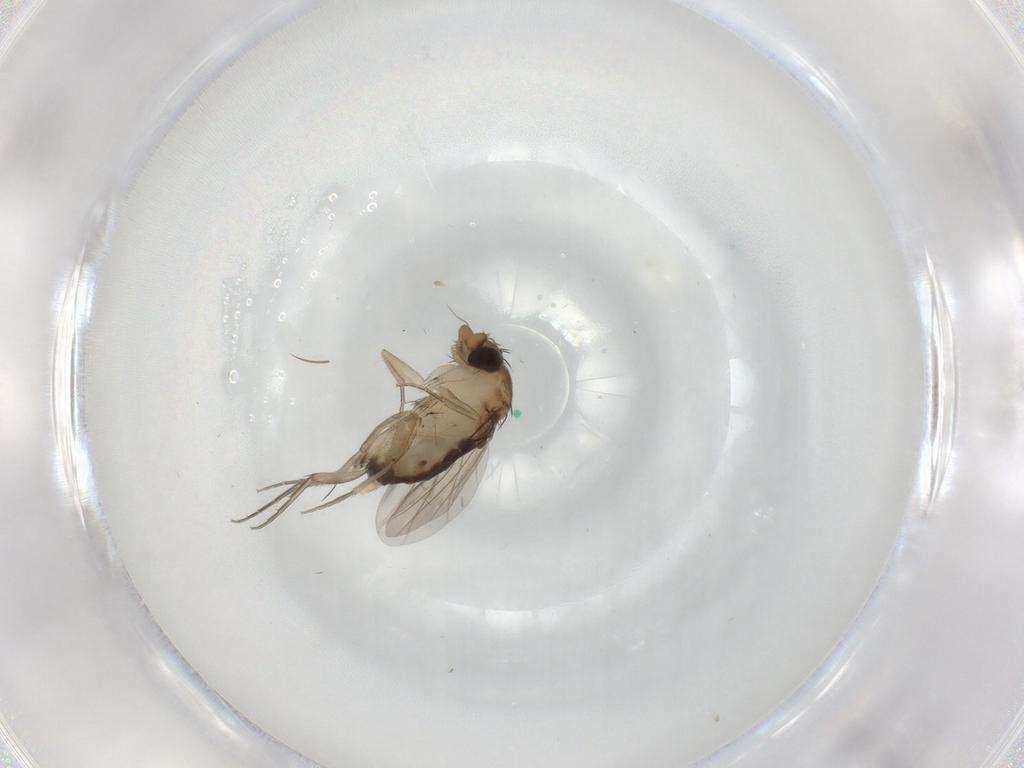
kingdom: Animalia
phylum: Arthropoda
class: Insecta
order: Diptera
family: Phoridae
